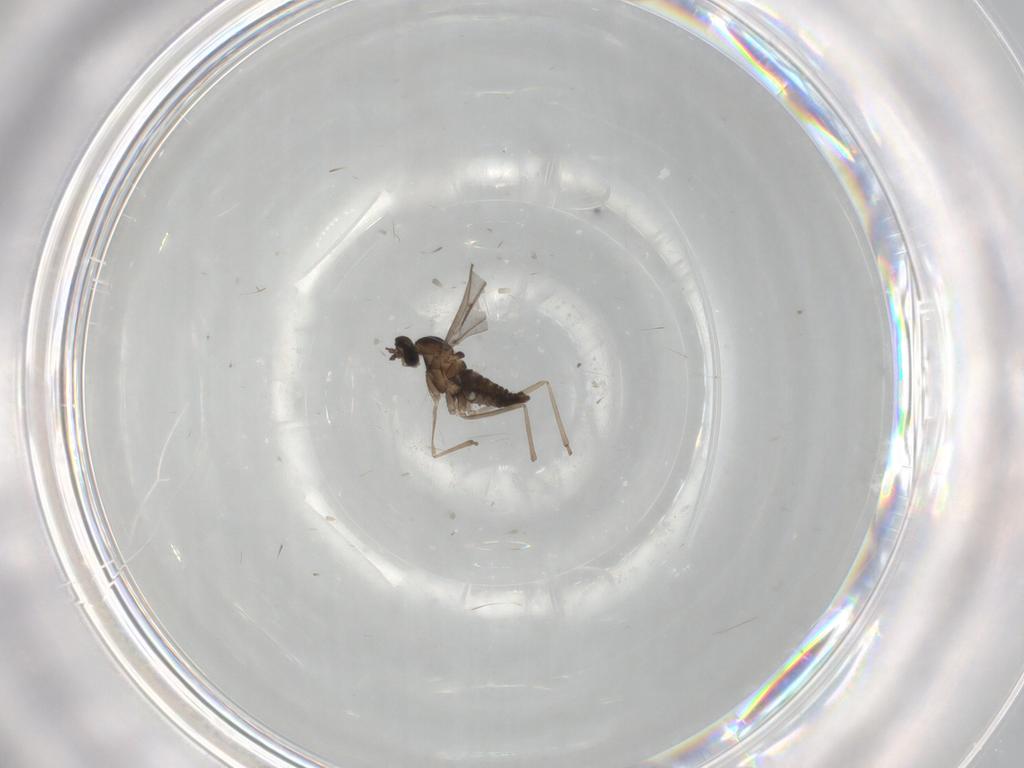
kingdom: Animalia
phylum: Arthropoda
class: Insecta
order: Diptera
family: Cecidomyiidae
